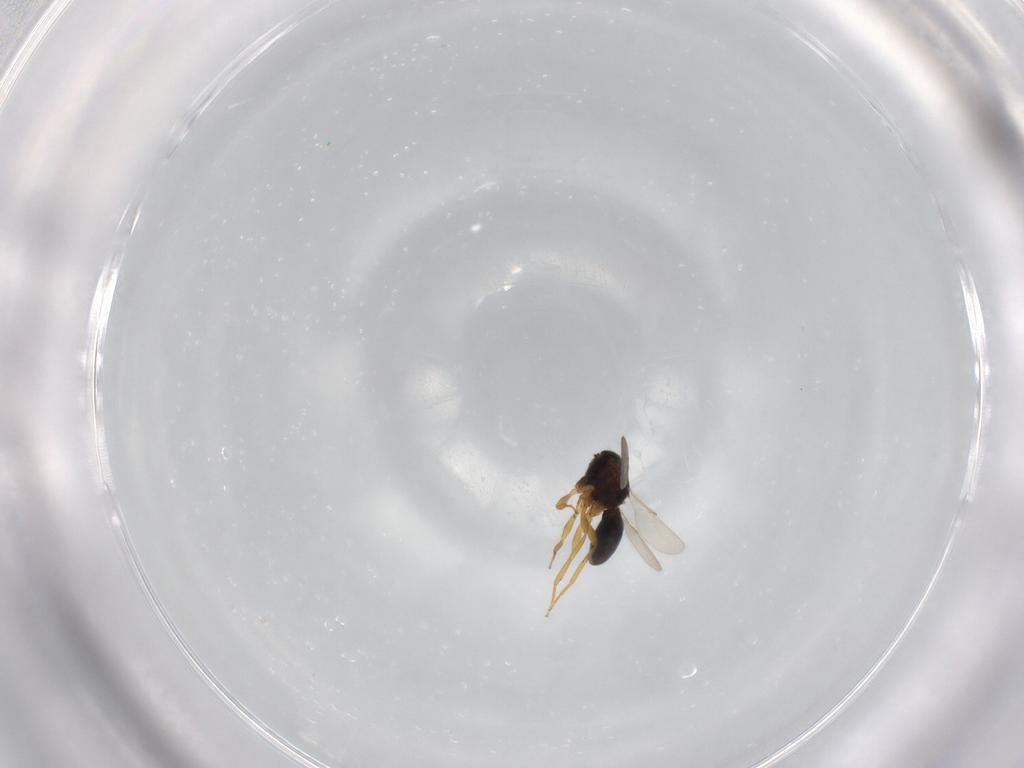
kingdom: Animalia
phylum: Arthropoda
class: Insecta
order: Hymenoptera
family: Scelionidae
